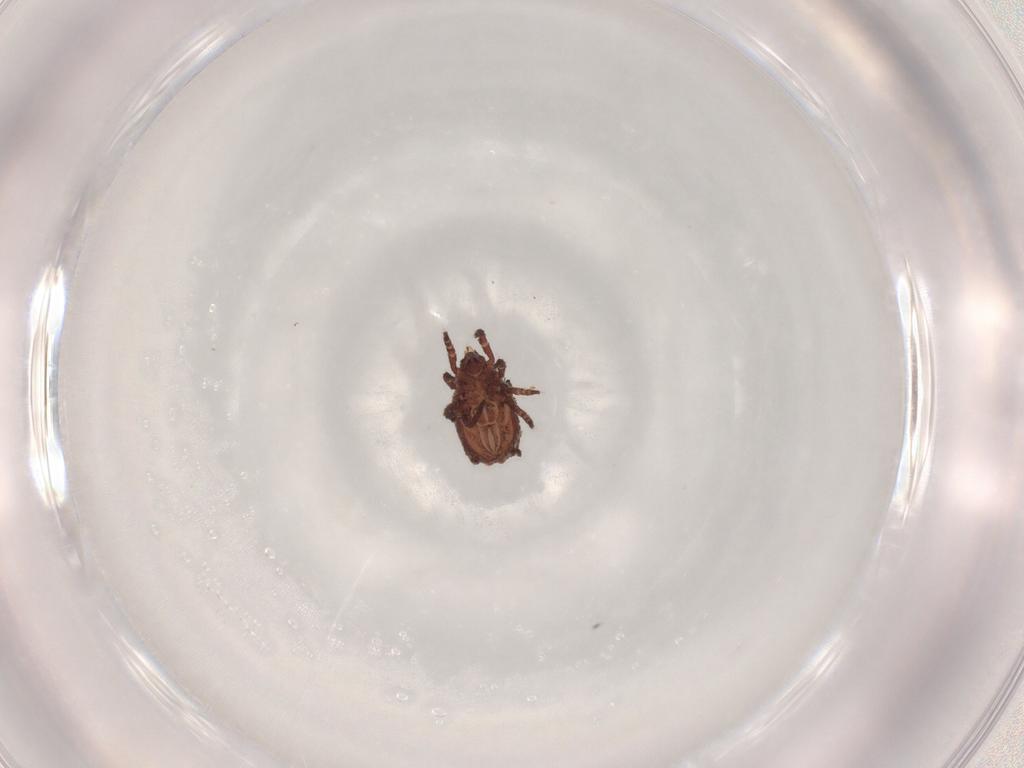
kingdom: Animalia
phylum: Arthropoda
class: Arachnida
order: Sarcoptiformes
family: Crotoniidae
